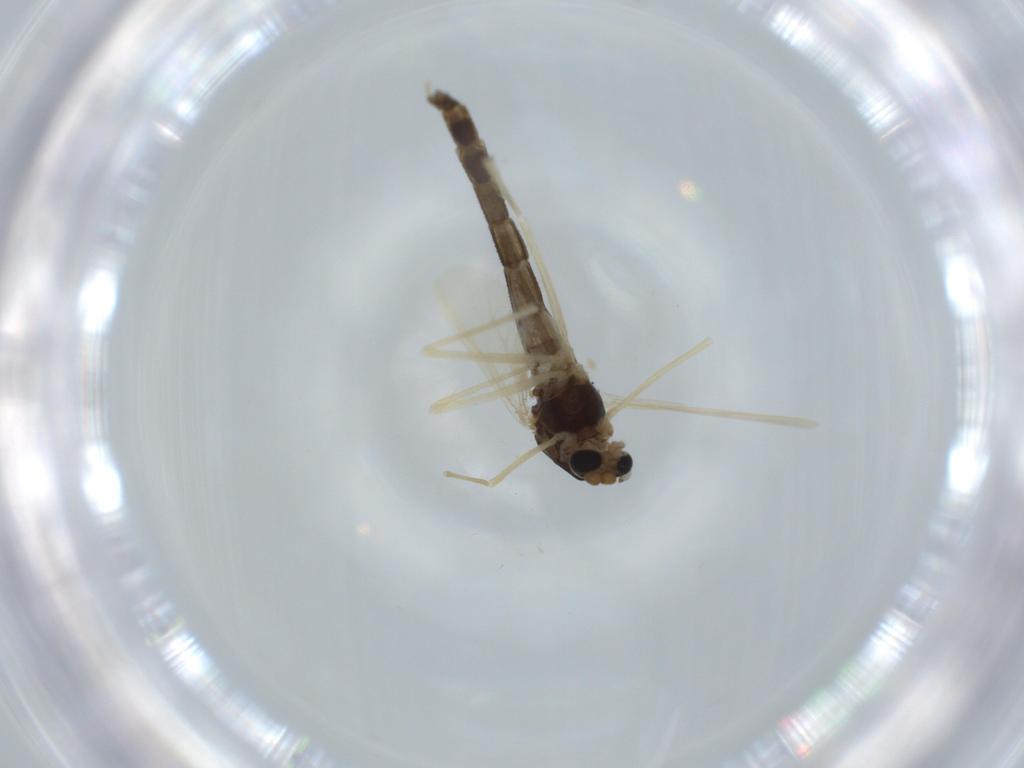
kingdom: Animalia
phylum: Arthropoda
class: Insecta
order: Diptera
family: Chironomidae
